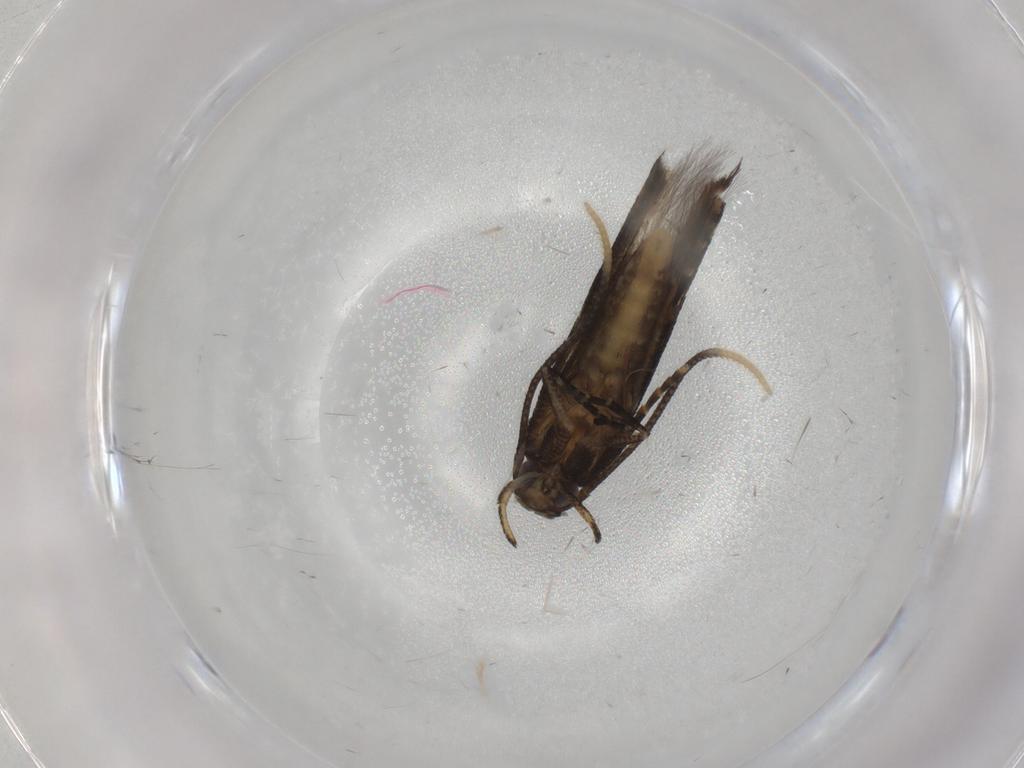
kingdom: Animalia
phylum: Arthropoda
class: Insecta
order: Lepidoptera
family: Cosmopterigidae
